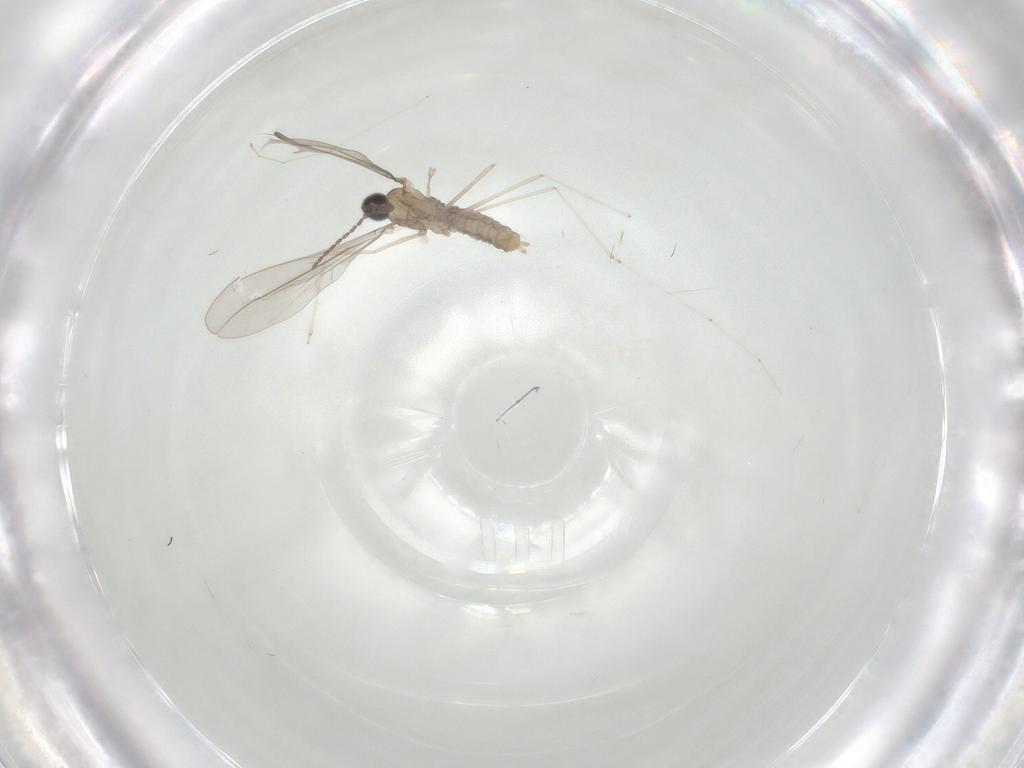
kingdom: Animalia
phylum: Arthropoda
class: Insecta
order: Diptera
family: Cecidomyiidae
